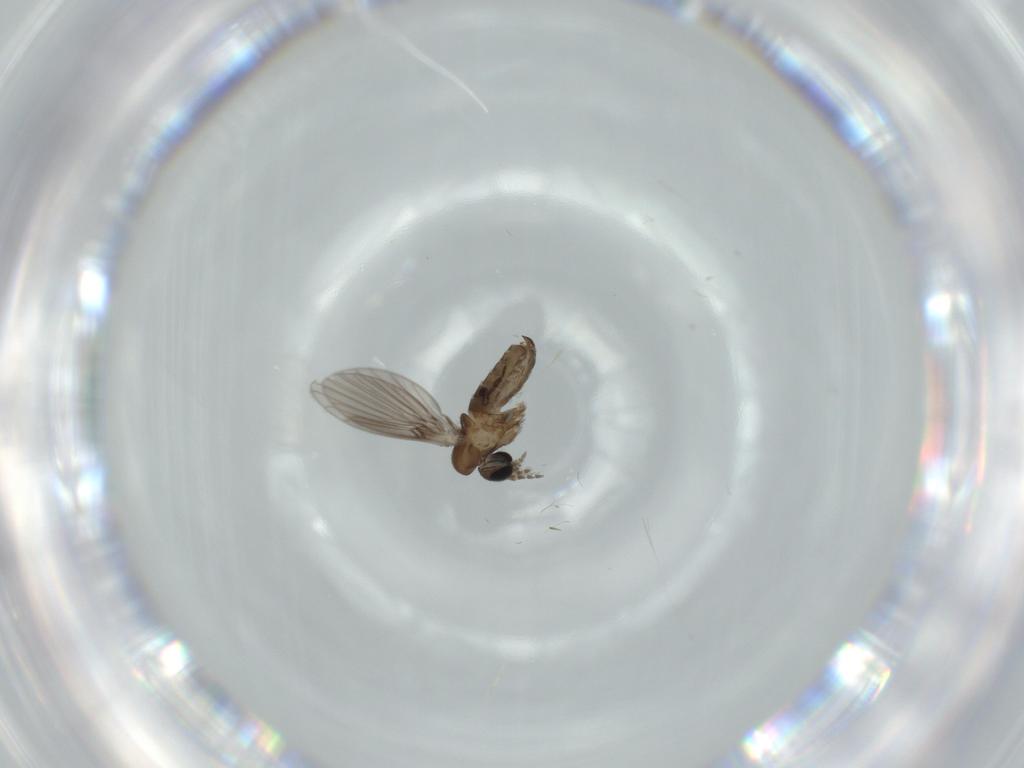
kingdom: Animalia
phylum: Arthropoda
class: Insecta
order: Diptera
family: Psychodidae
